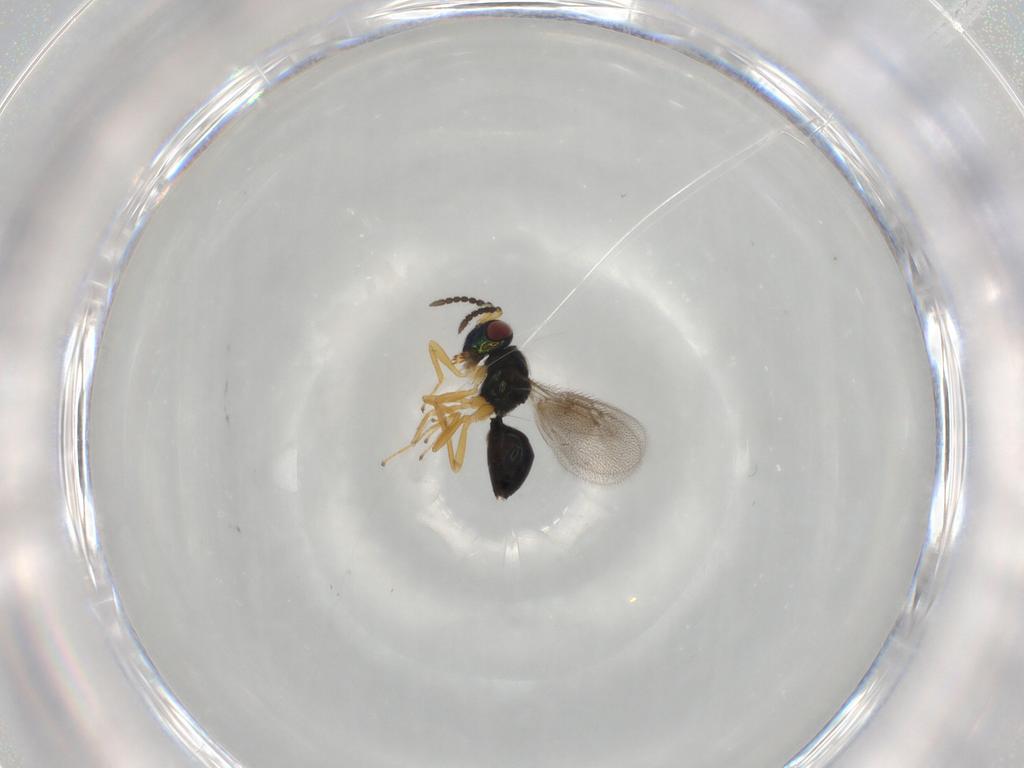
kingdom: Animalia
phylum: Arthropoda
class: Insecta
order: Hymenoptera
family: Pteromalidae
